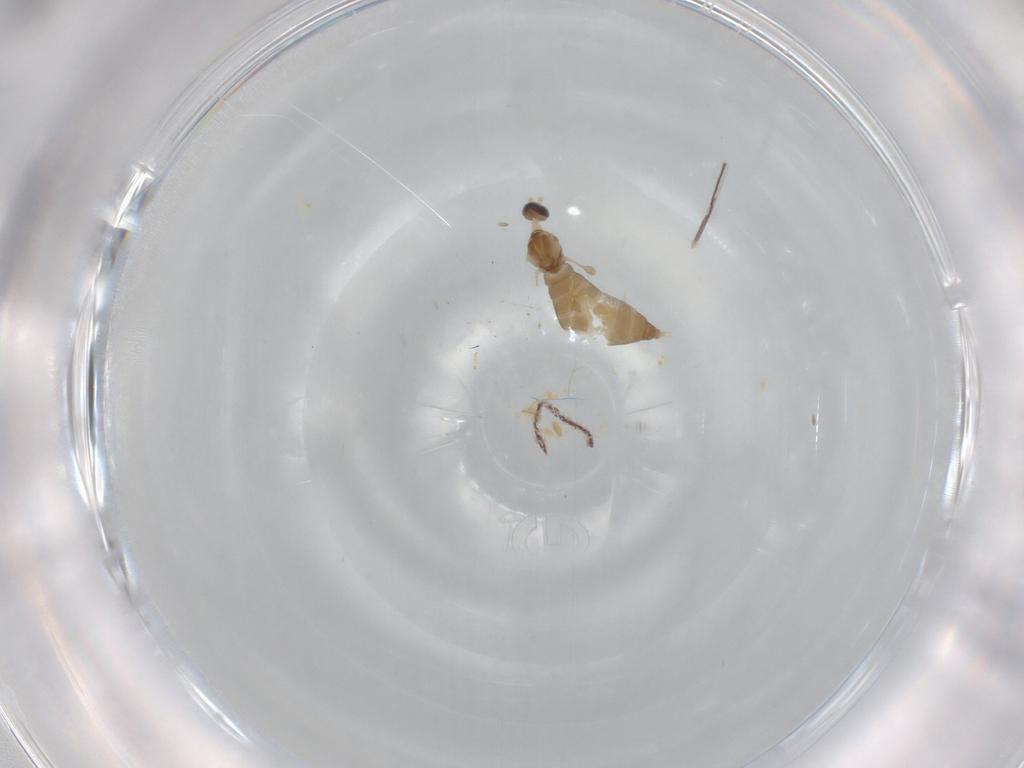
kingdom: Animalia
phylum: Arthropoda
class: Insecta
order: Diptera
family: Cecidomyiidae
